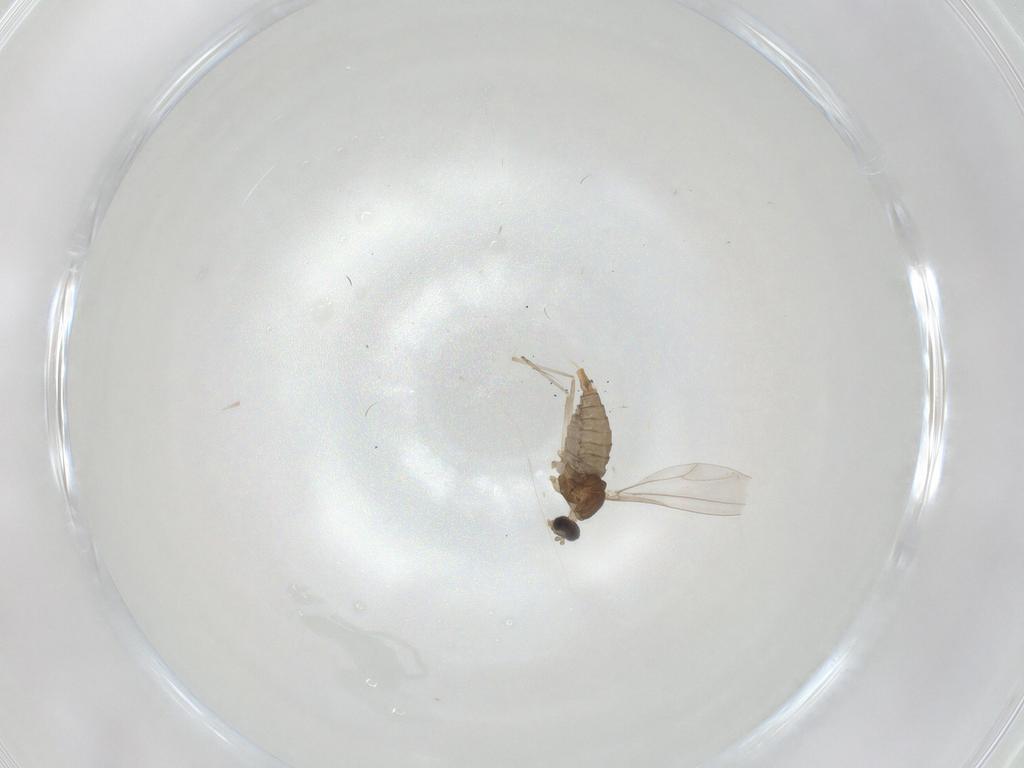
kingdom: Animalia
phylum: Arthropoda
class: Insecta
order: Diptera
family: Cecidomyiidae
